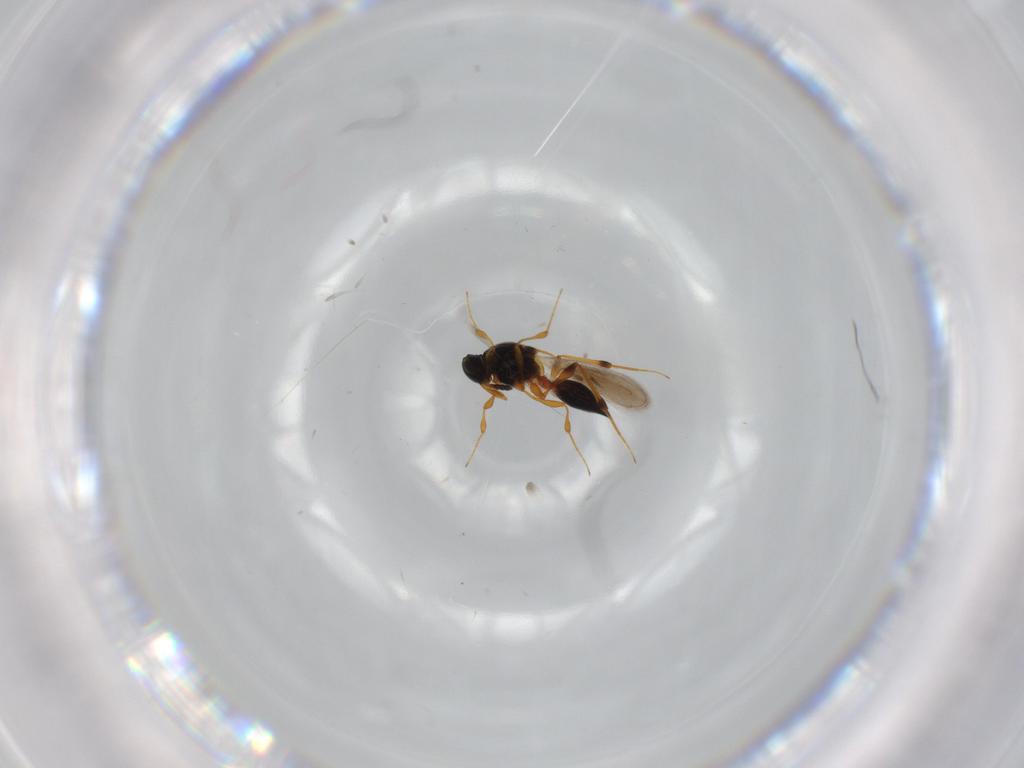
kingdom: Animalia
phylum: Arthropoda
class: Insecta
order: Hymenoptera
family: Platygastridae
